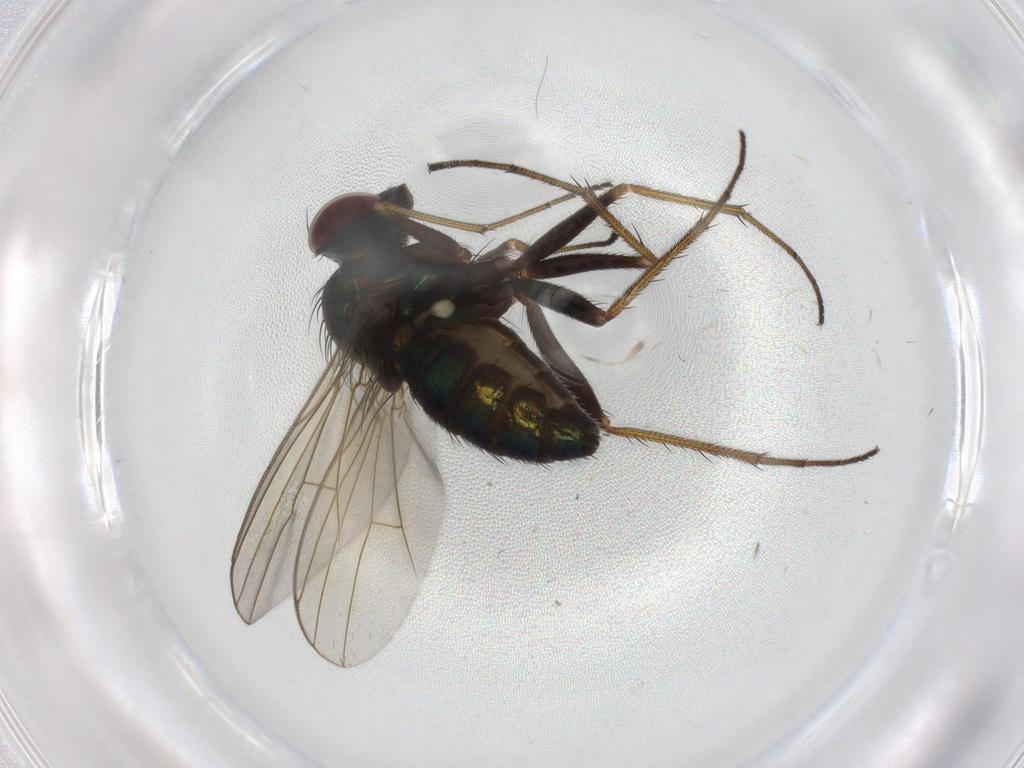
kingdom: Animalia
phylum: Arthropoda
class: Insecta
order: Diptera
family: Dolichopodidae
